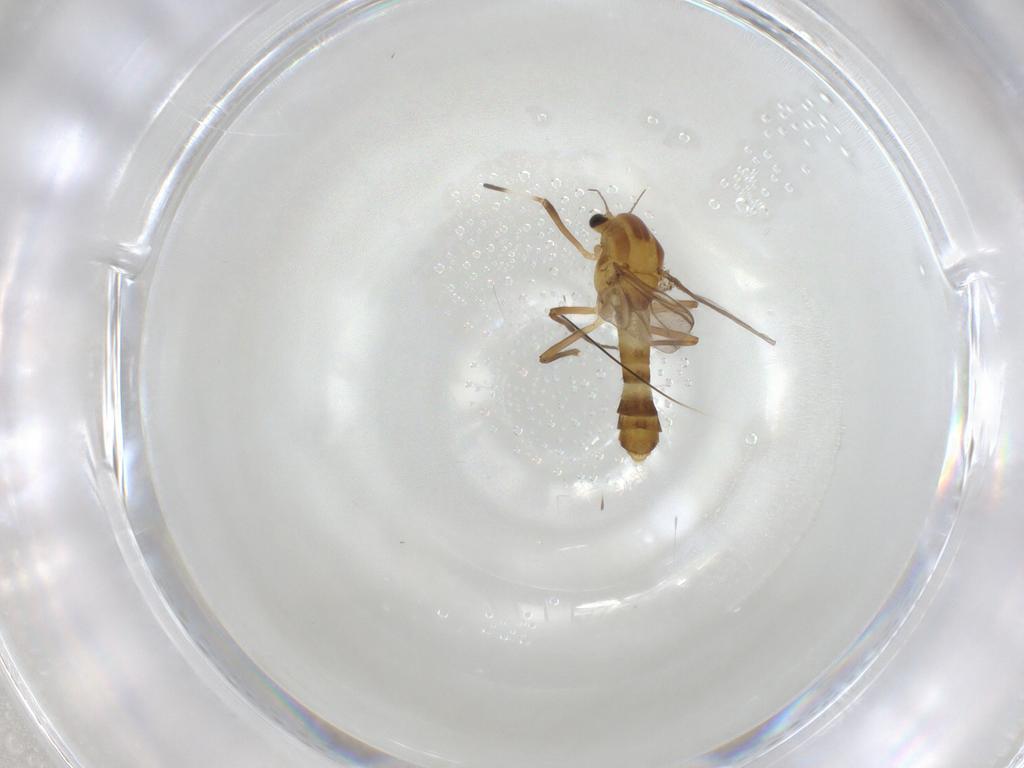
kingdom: Animalia
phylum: Arthropoda
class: Insecta
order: Diptera
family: Chironomidae
